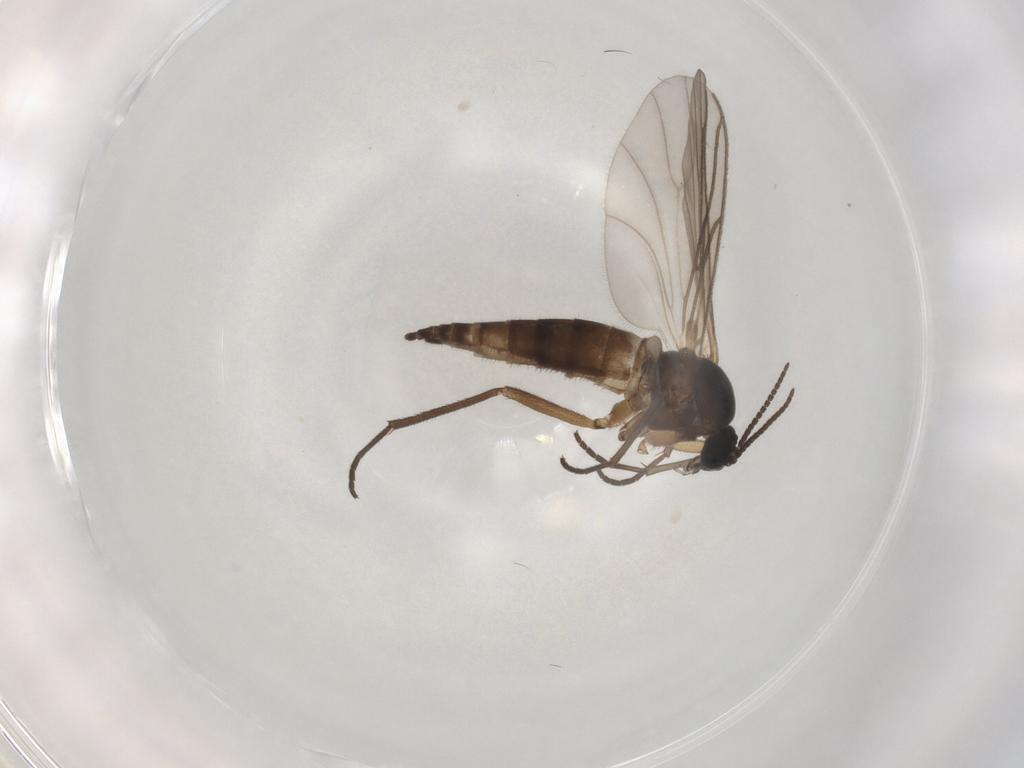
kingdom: Animalia
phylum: Arthropoda
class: Insecta
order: Diptera
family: Sciaridae
